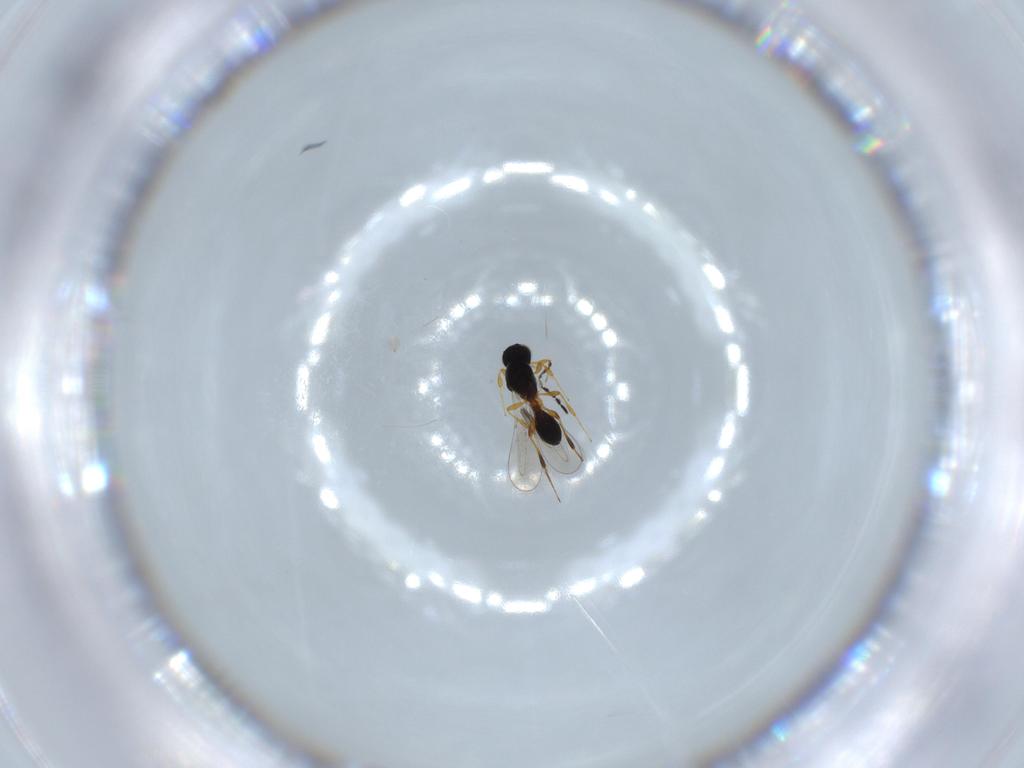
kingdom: Animalia
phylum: Arthropoda
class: Insecta
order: Hymenoptera
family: Platygastridae
